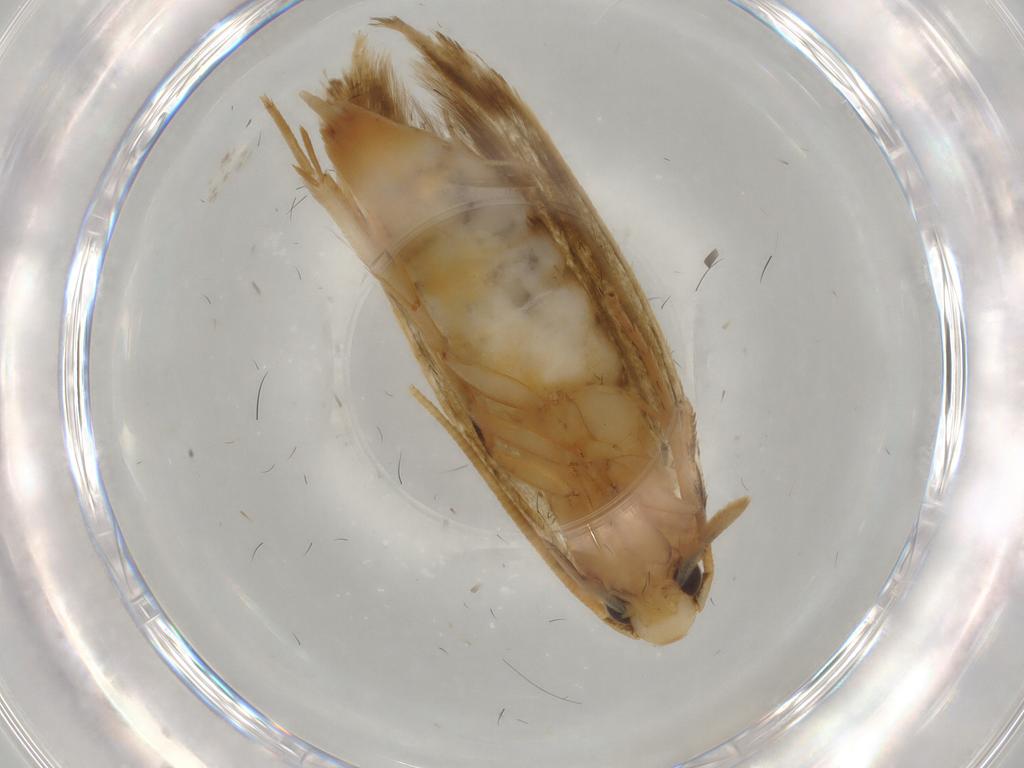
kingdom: Animalia
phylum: Arthropoda
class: Insecta
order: Lepidoptera
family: Tineidae
